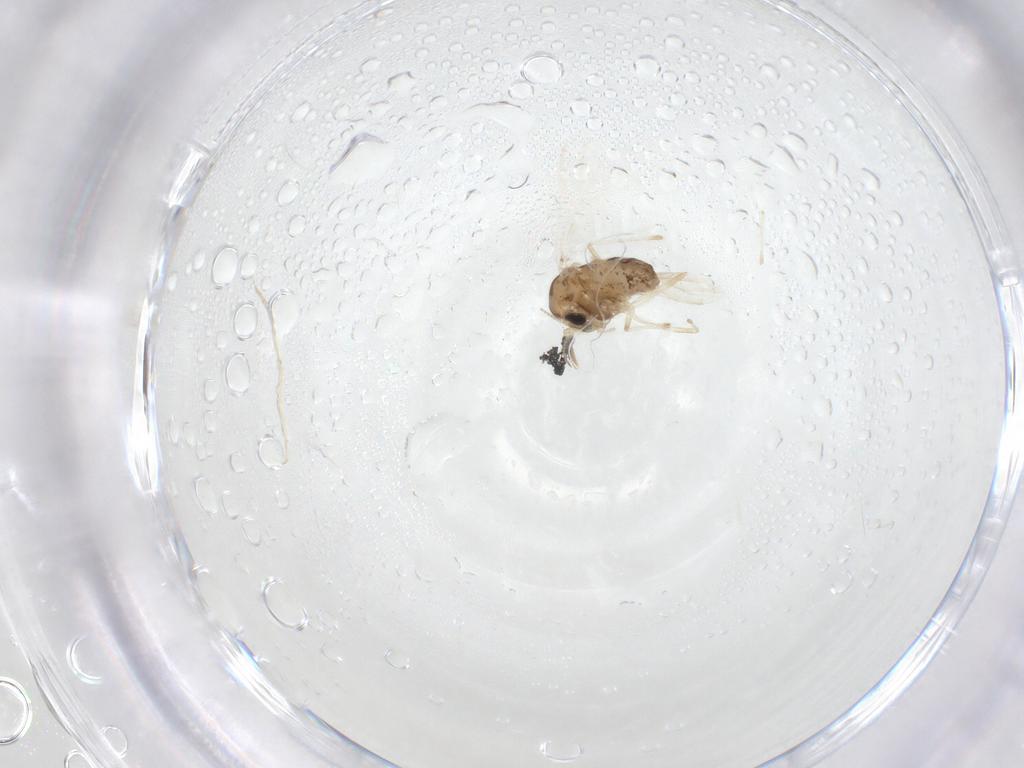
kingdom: Animalia
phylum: Arthropoda
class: Insecta
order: Diptera
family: Chironomidae
